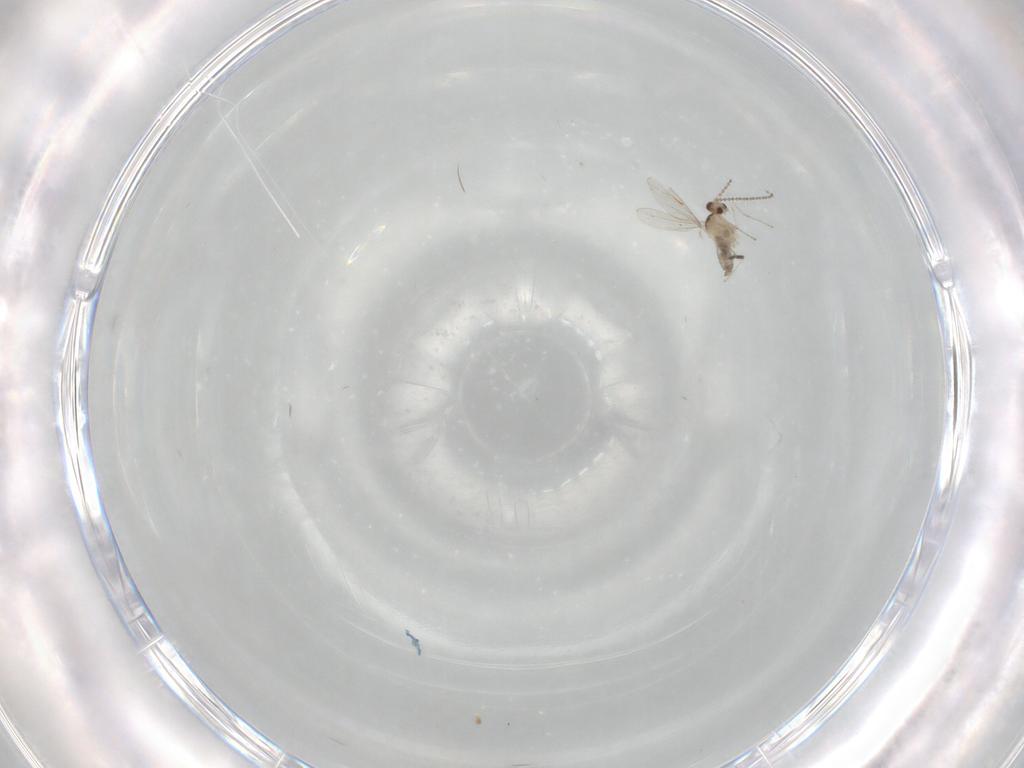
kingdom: Animalia
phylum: Arthropoda
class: Insecta
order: Diptera
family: Cecidomyiidae
